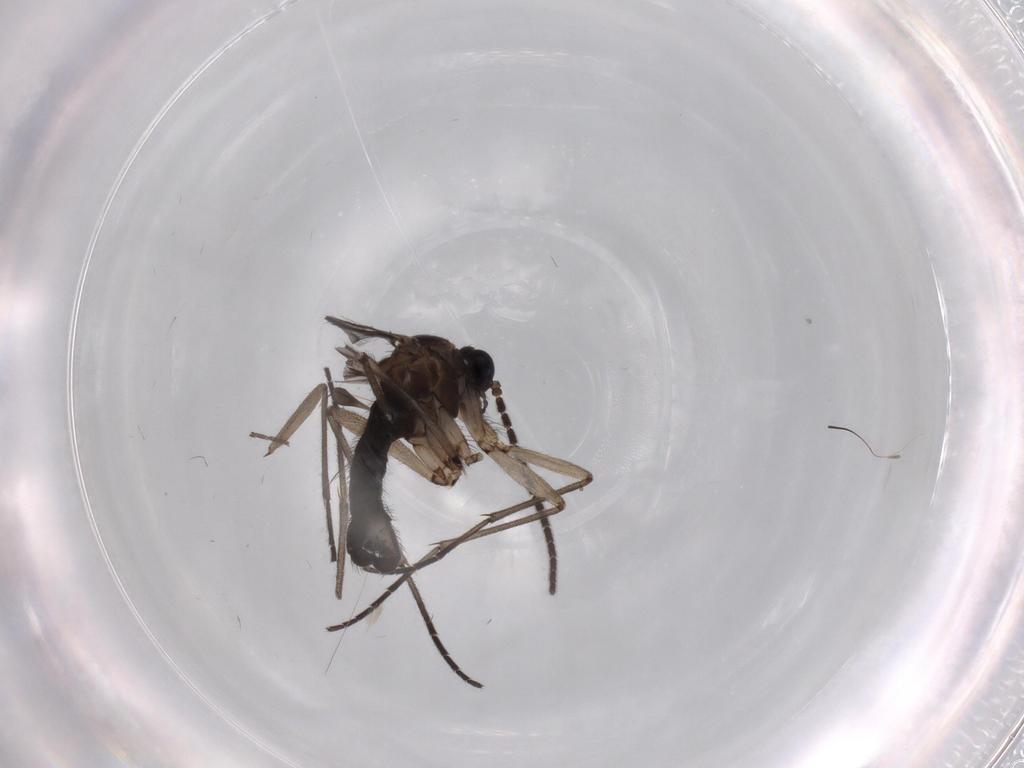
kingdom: Animalia
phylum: Arthropoda
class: Insecta
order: Diptera
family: Sciaridae
